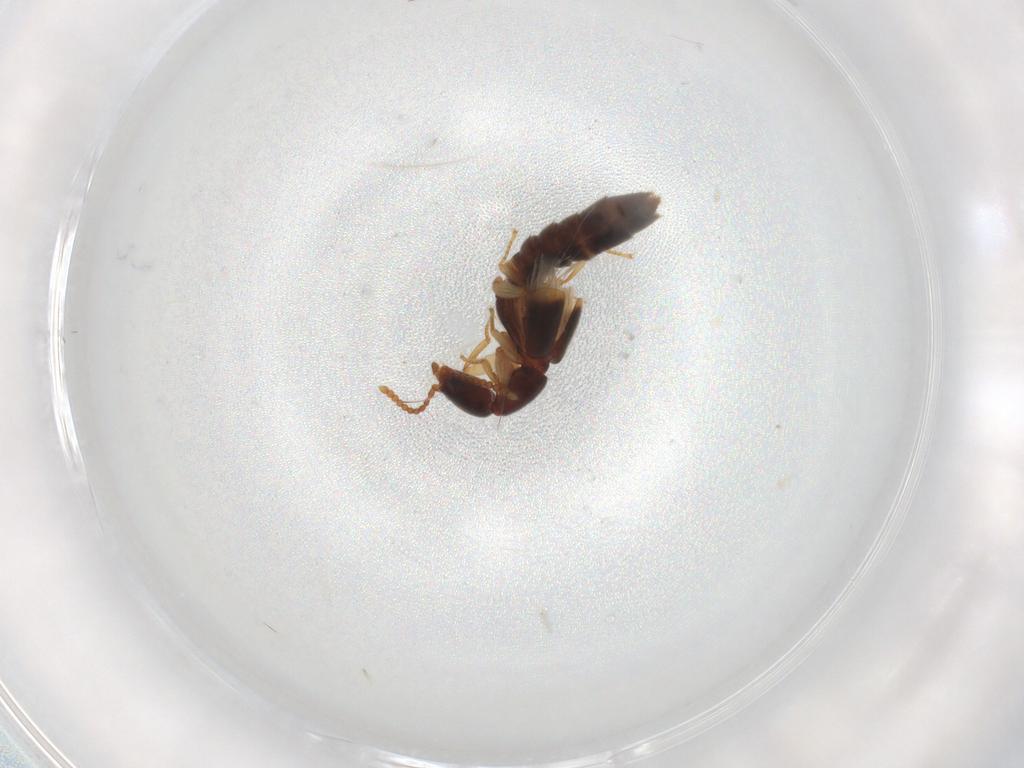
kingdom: Animalia
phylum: Arthropoda
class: Insecta
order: Coleoptera
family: Staphylinidae
